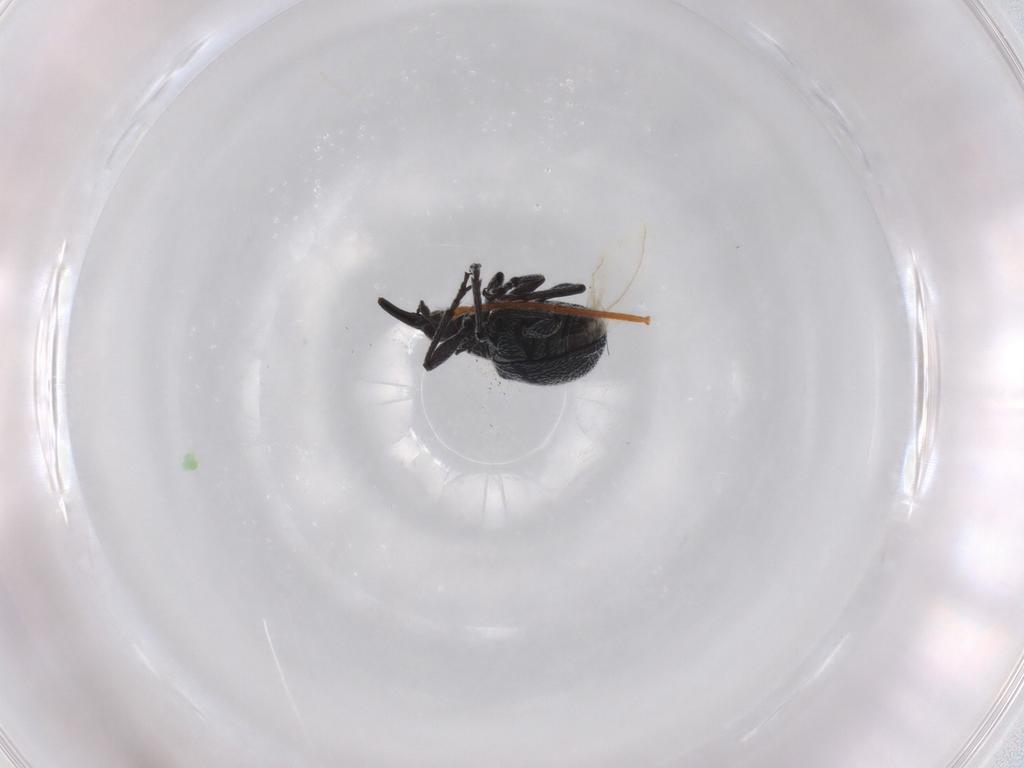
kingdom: Animalia
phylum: Arthropoda
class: Insecta
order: Coleoptera
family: Brentidae
